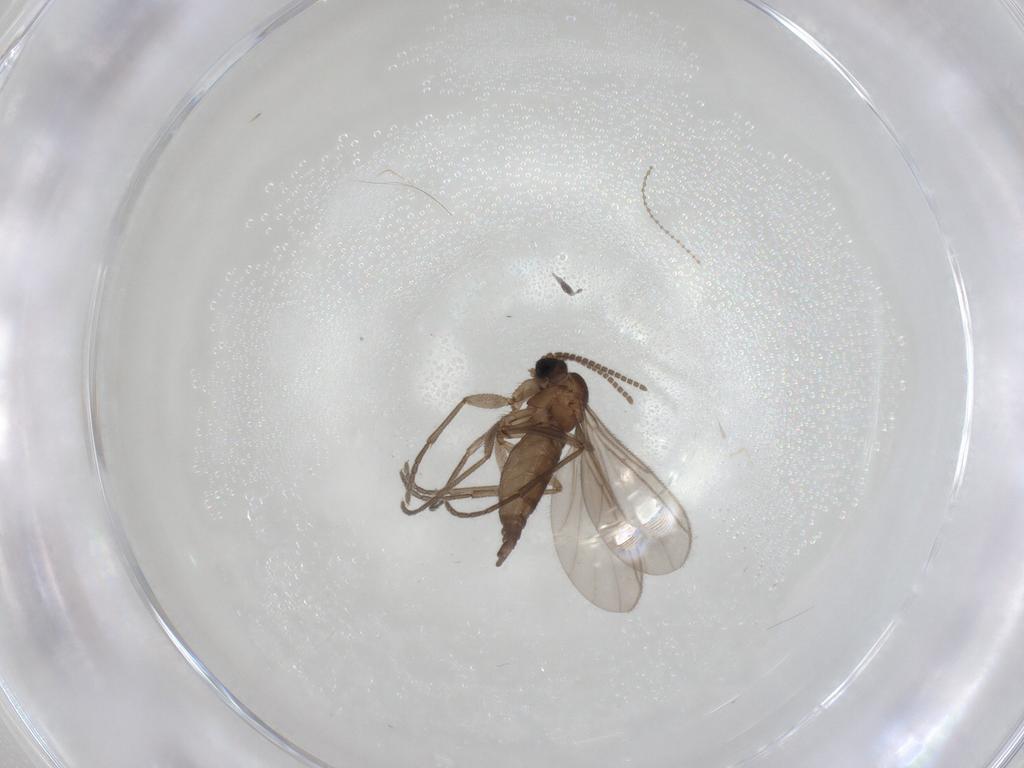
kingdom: Animalia
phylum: Arthropoda
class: Insecta
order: Diptera
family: Sciaridae
